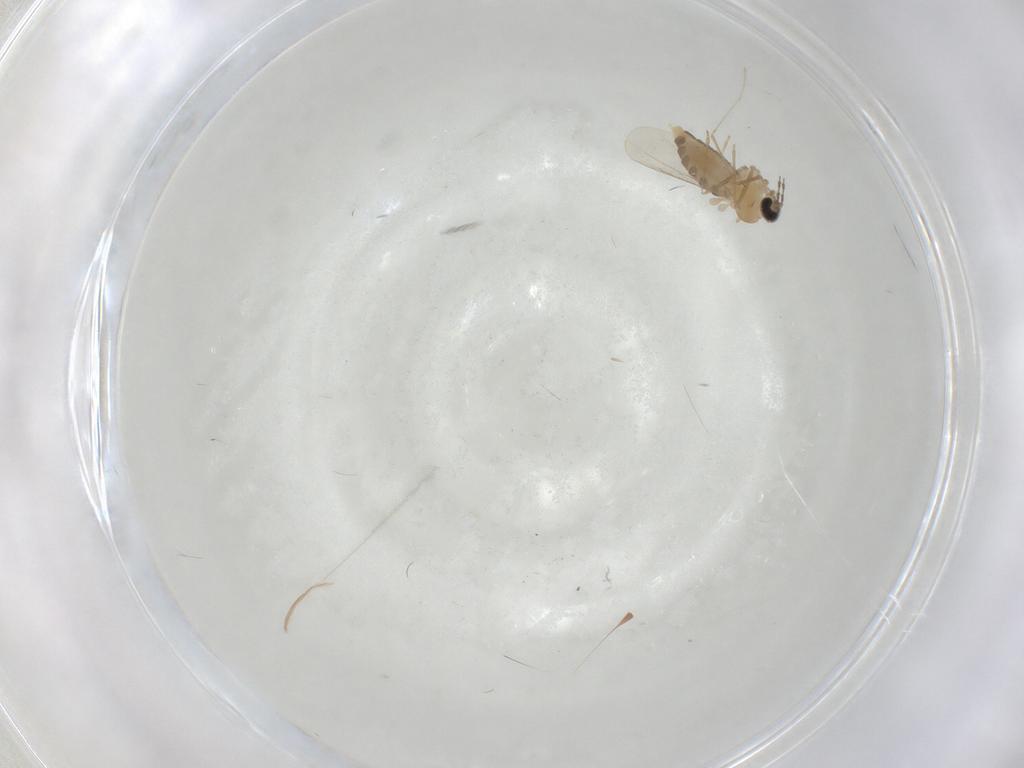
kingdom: Animalia
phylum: Arthropoda
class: Insecta
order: Diptera
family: Cecidomyiidae
